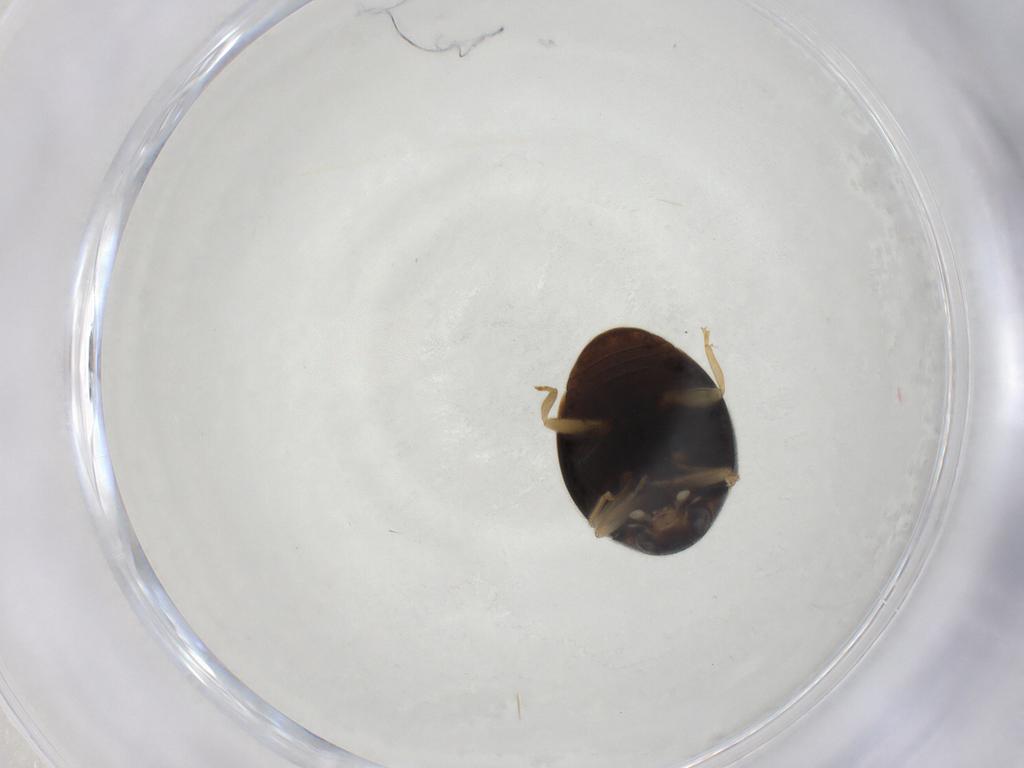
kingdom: Animalia
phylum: Arthropoda
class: Insecta
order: Coleoptera
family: Coccinellidae
